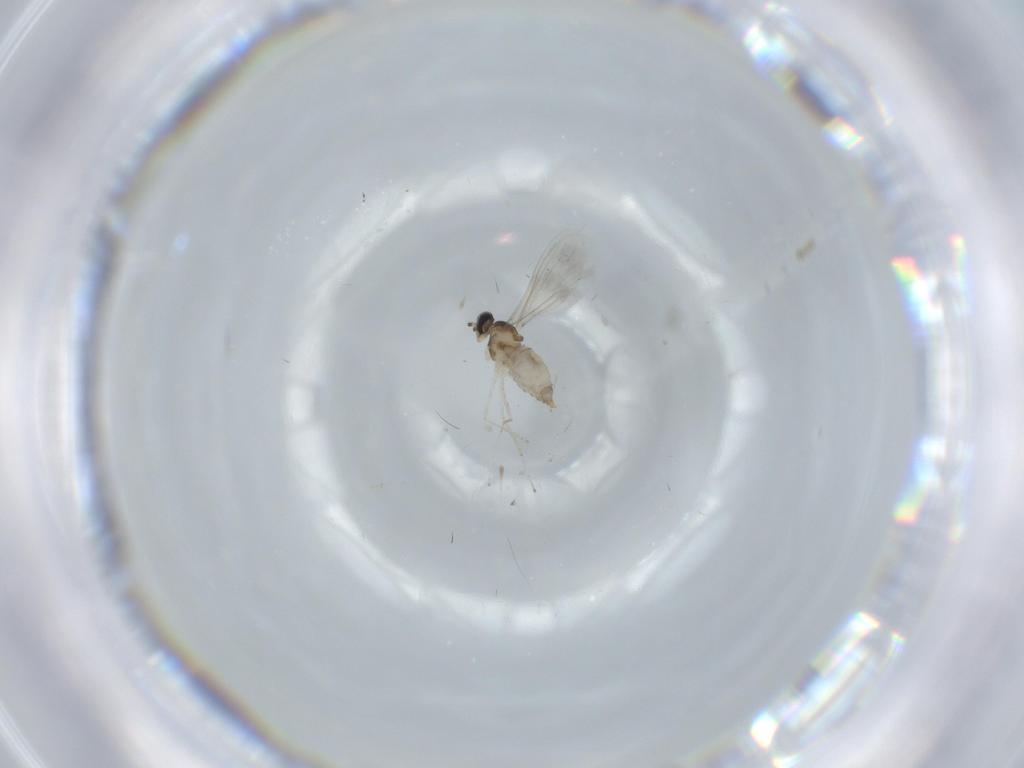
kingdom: Animalia
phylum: Arthropoda
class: Insecta
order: Diptera
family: Cecidomyiidae
